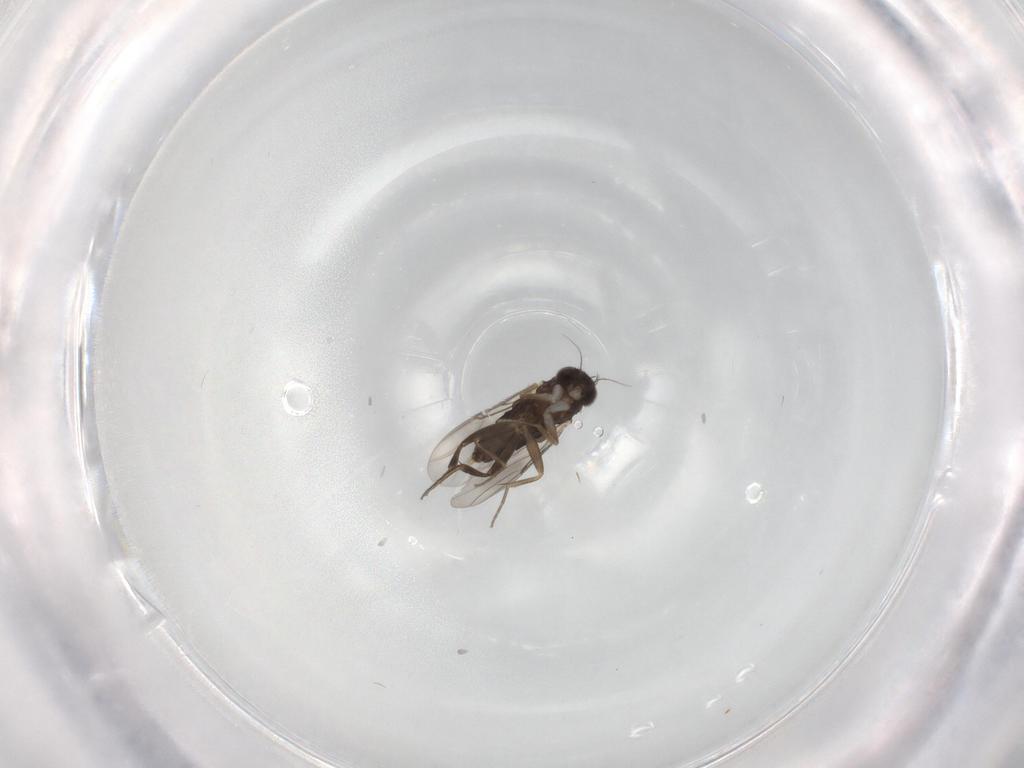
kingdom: Animalia
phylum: Arthropoda
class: Insecta
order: Diptera
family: Phoridae
